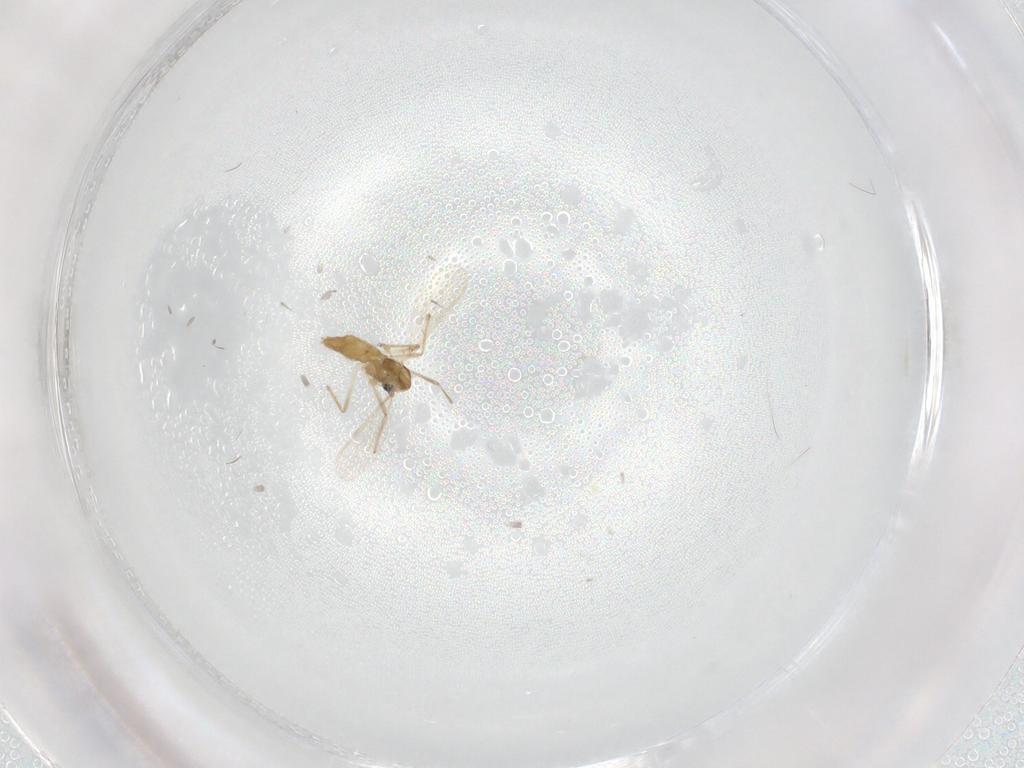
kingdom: Animalia
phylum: Arthropoda
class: Insecta
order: Diptera
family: Chironomidae
